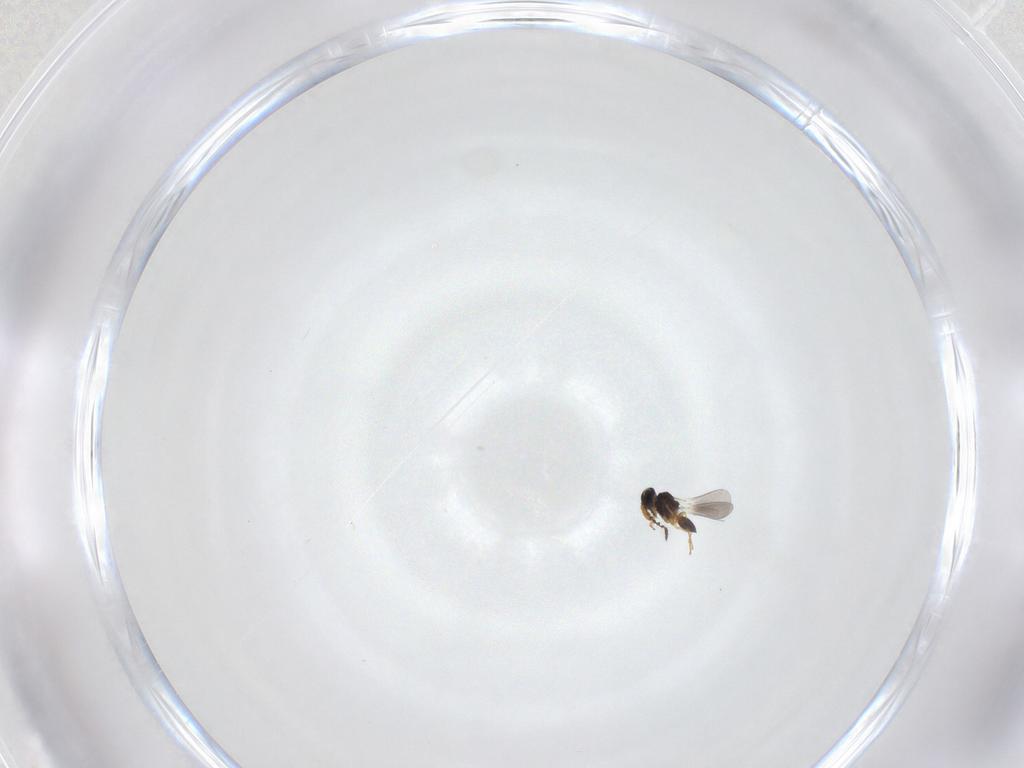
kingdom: Animalia
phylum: Arthropoda
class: Insecta
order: Hymenoptera
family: Platygastridae
